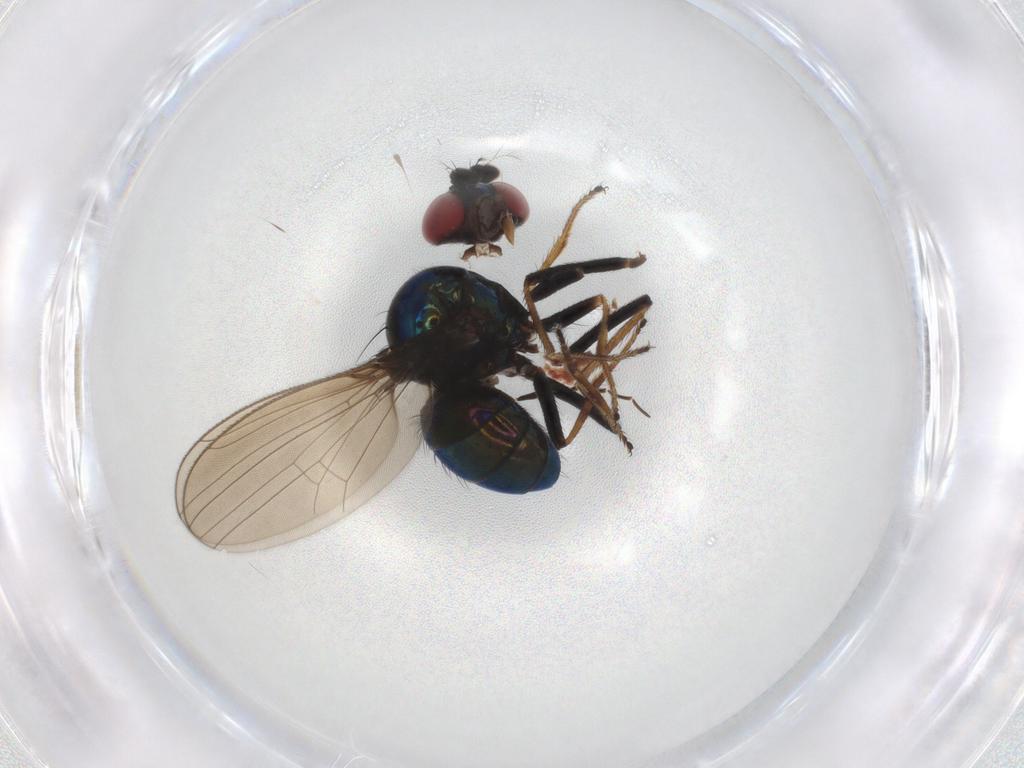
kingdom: Animalia
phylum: Arthropoda
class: Insecta
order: Diptera
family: Ephydridae
